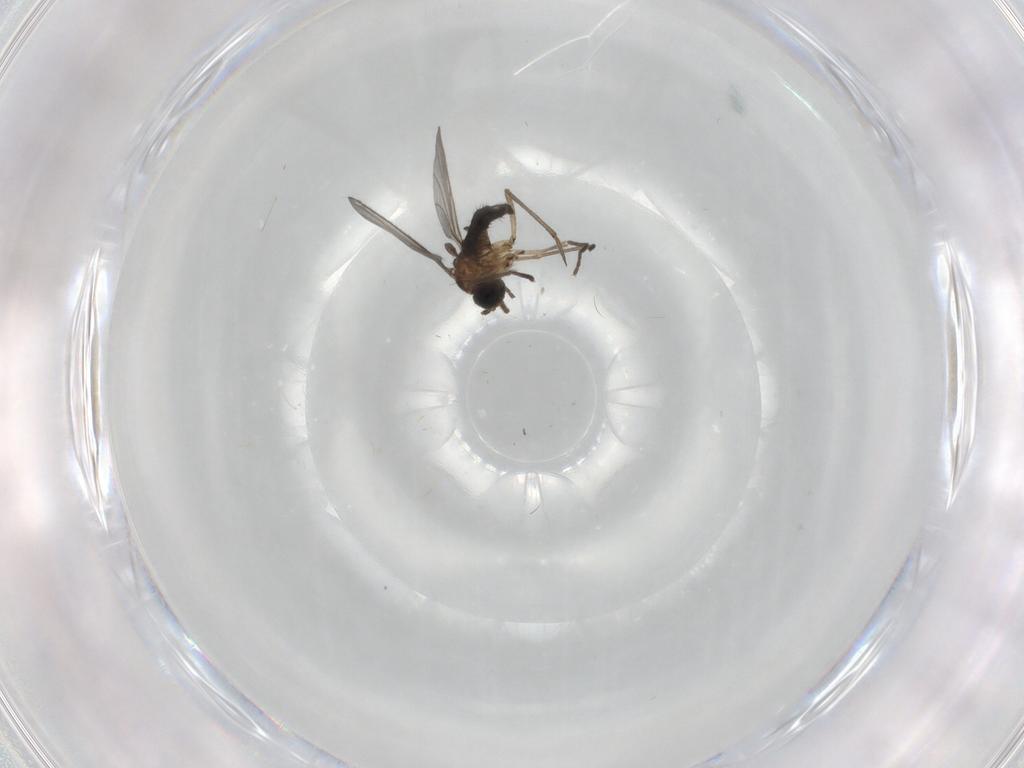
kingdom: Animalia
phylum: Arthropoda
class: Insecta
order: Diptera
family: Sciaridae
